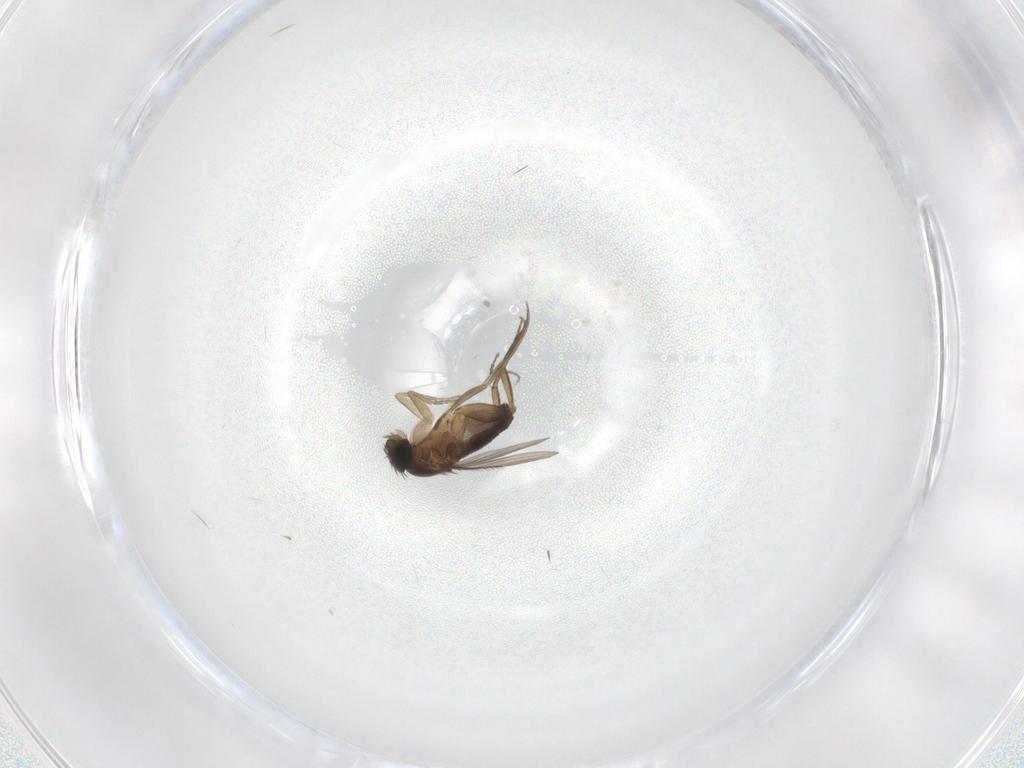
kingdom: Animalia
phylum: Arthropoda
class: Insecta
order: Diptera
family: Phoridae
